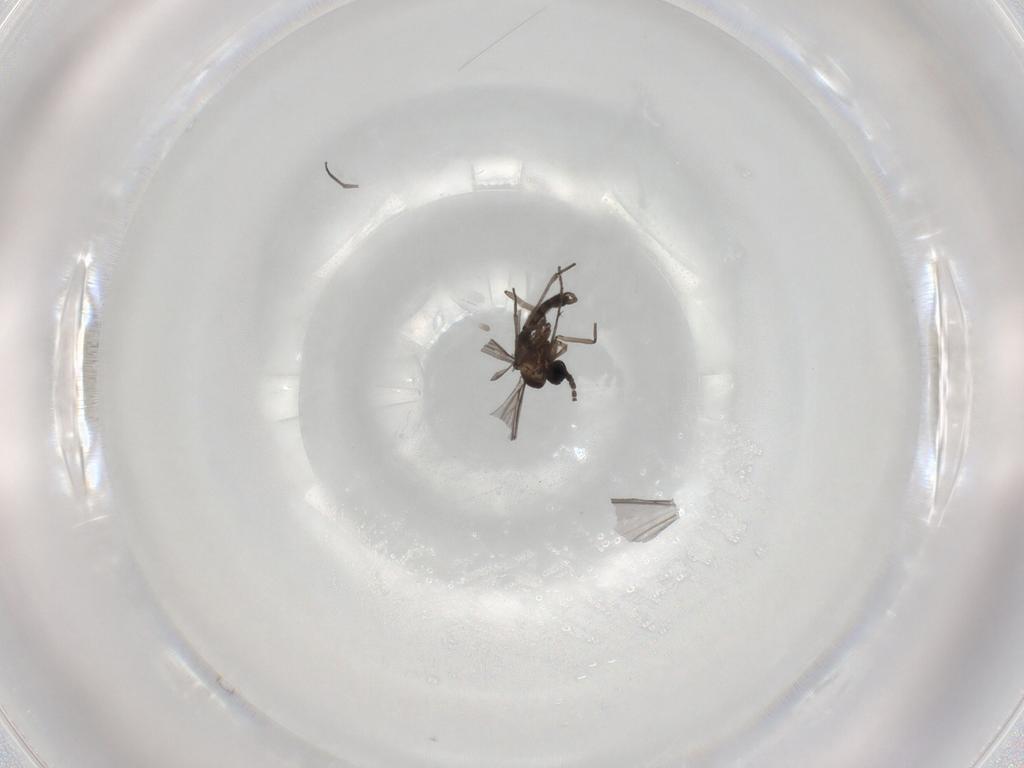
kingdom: Animalia
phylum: Arthropoda
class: Insecta
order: Diptera
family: Sciaridae
